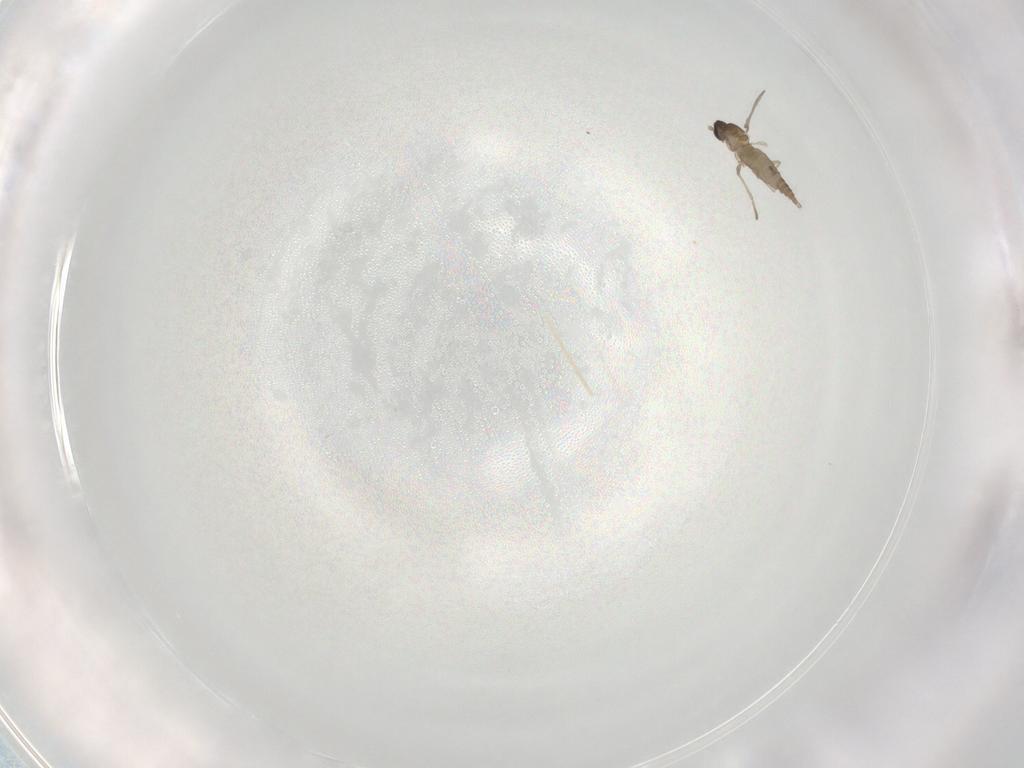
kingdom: Animalia
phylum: Arthropoda
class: Insecta
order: Diptera
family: Cecidomyiidae
